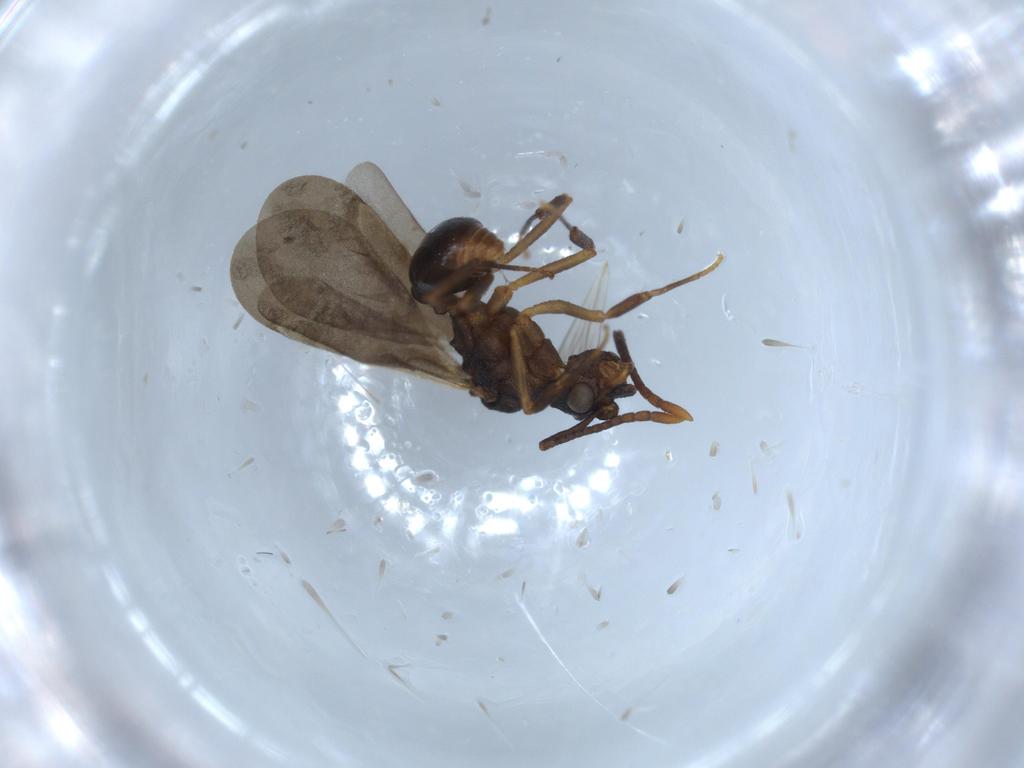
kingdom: Animalia
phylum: Arthropoda
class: Insecta
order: Hymenoptera
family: Formicidae
